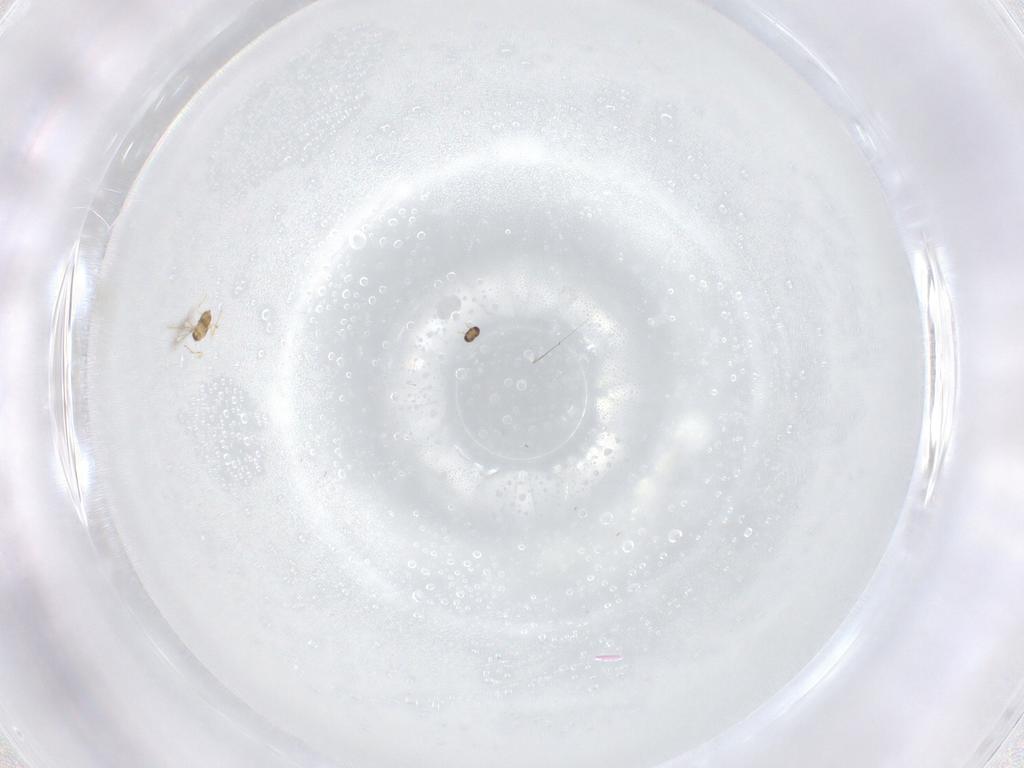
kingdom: Animalia
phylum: Arthropoda
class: Insecta
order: Hymenoptera
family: Mymaridae
